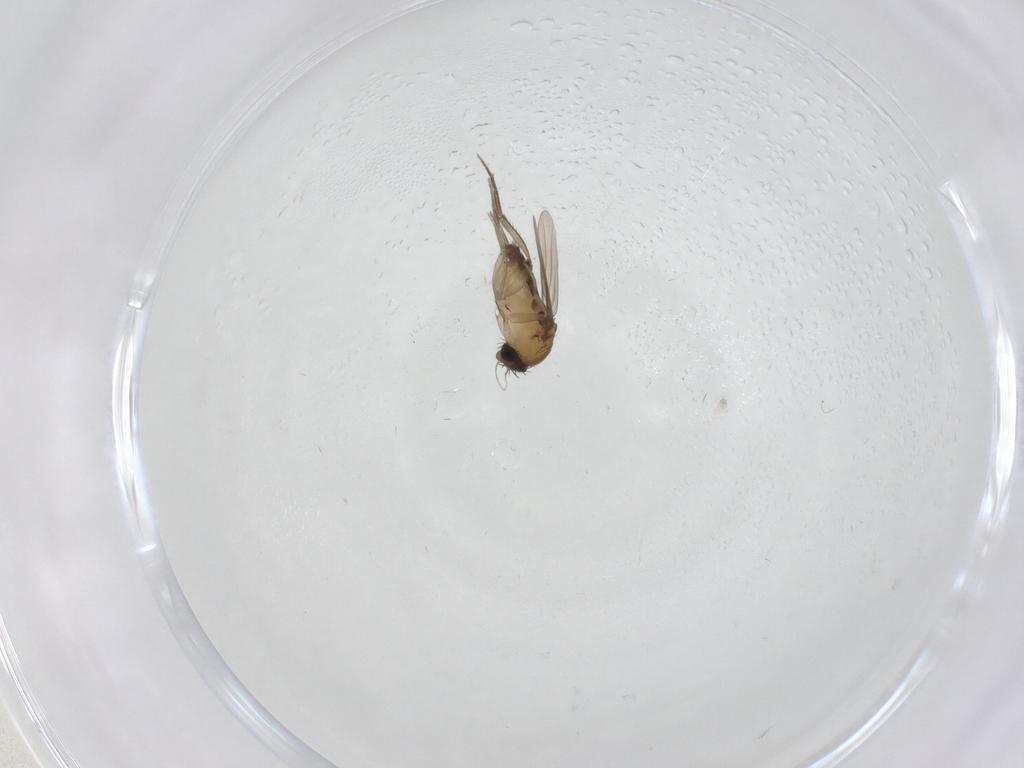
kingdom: Animalia
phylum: Arthropoda
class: Insecta
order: Diptera
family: Phoridae
